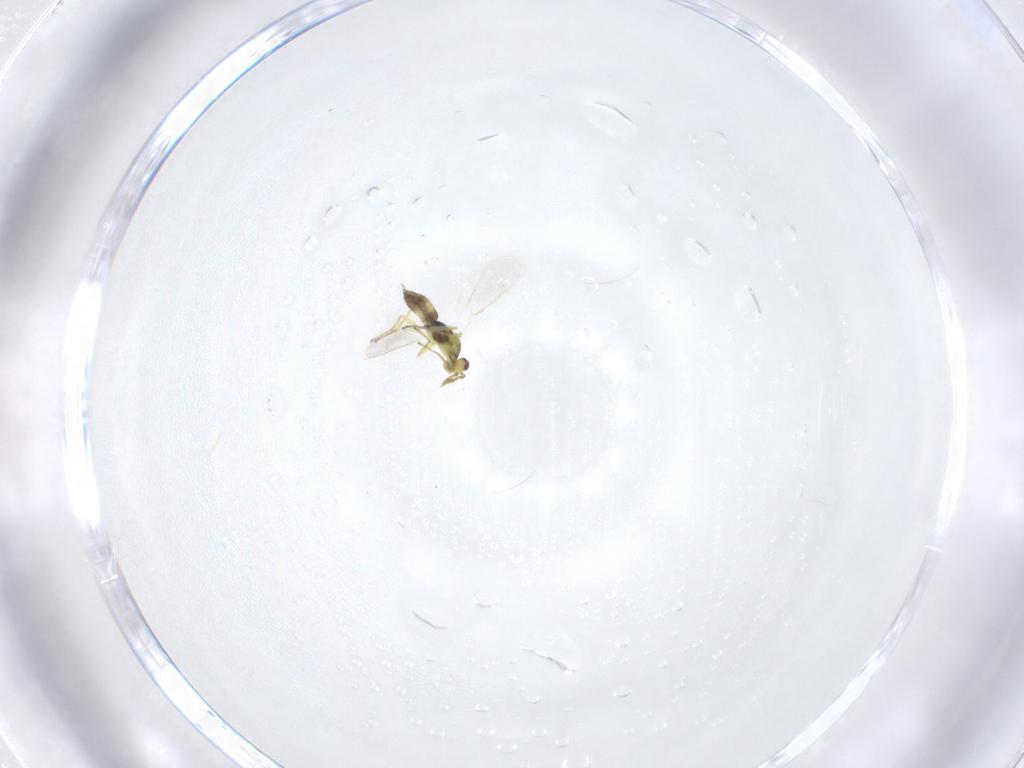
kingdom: Animalia
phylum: Arthropoda
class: Insecta
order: Hymenoptera
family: Eulophidae
